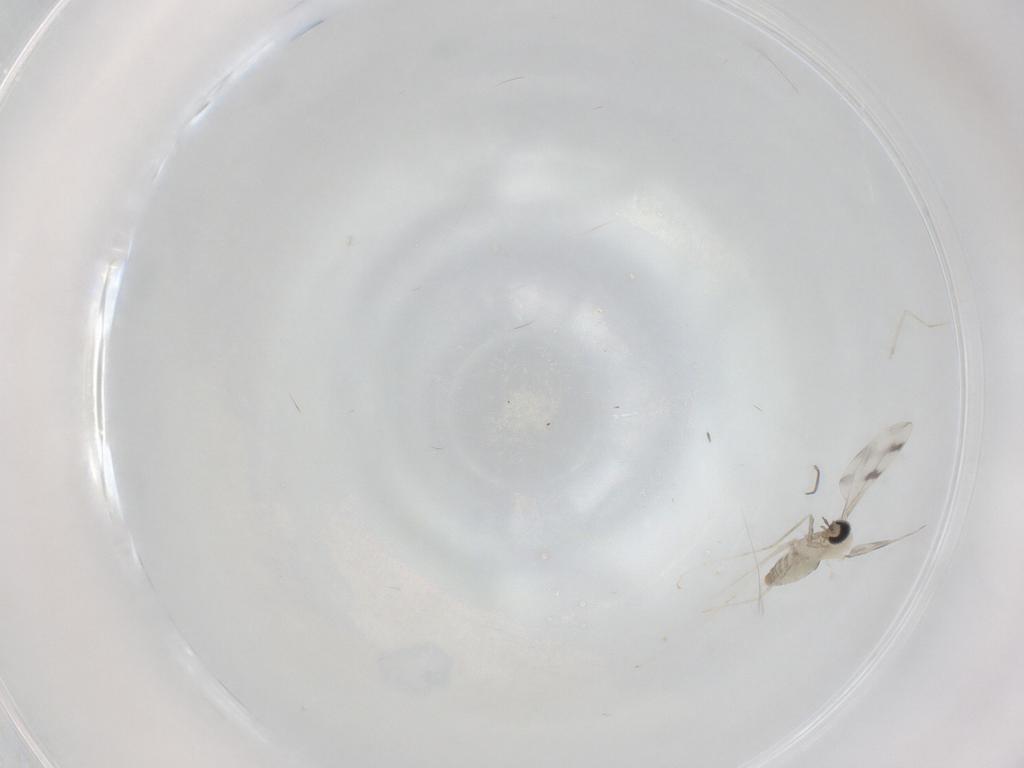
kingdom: Animalia
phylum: Arthropoda
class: Insecta
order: Diptera
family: Cecidomyiidae
